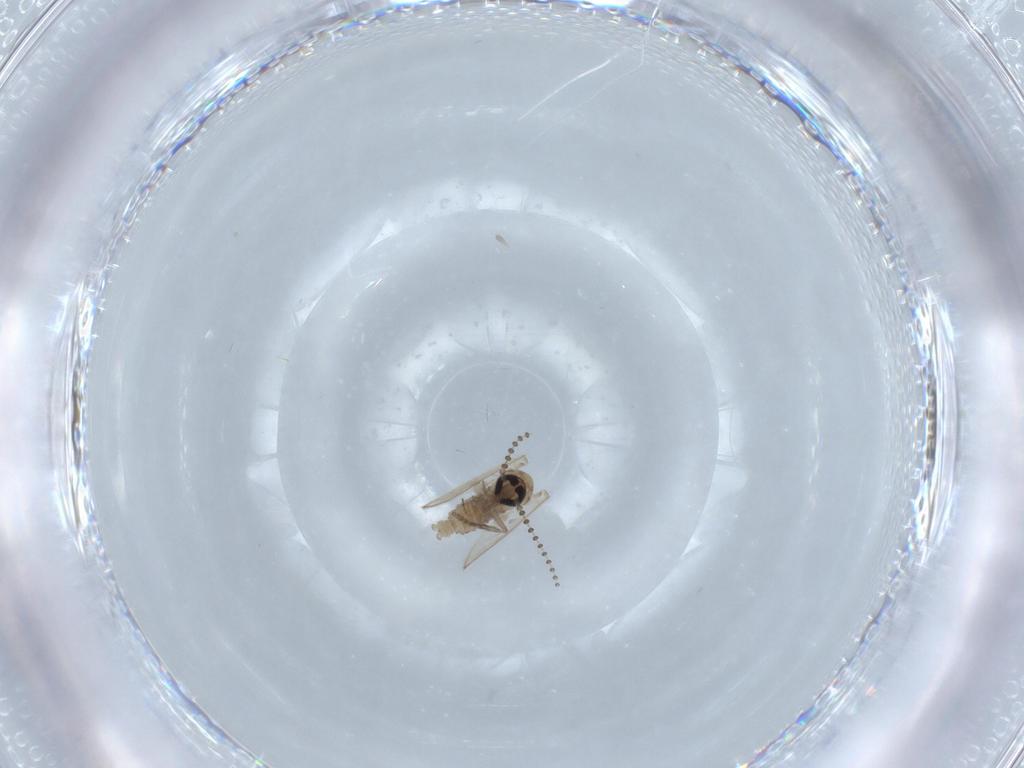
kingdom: Animalia
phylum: Arthropoda
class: Insecta
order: Diptera
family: Psychodidae
